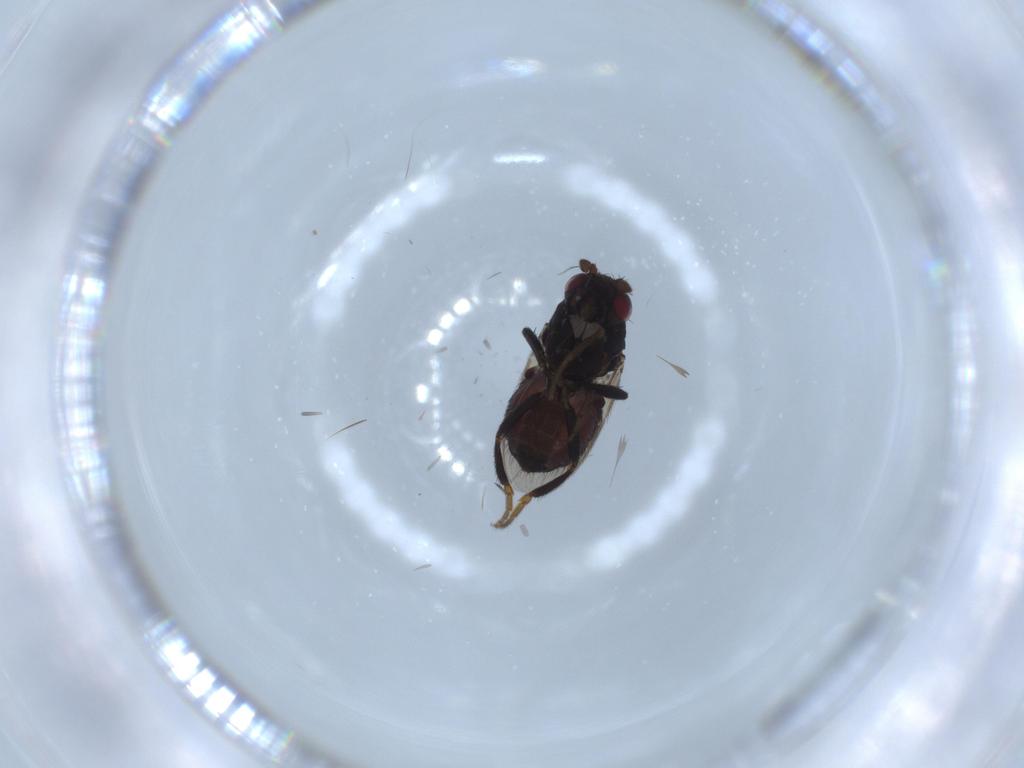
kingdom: Animalia
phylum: Arthropoda
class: Insecta
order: Diptera
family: Sphaeroceridae
